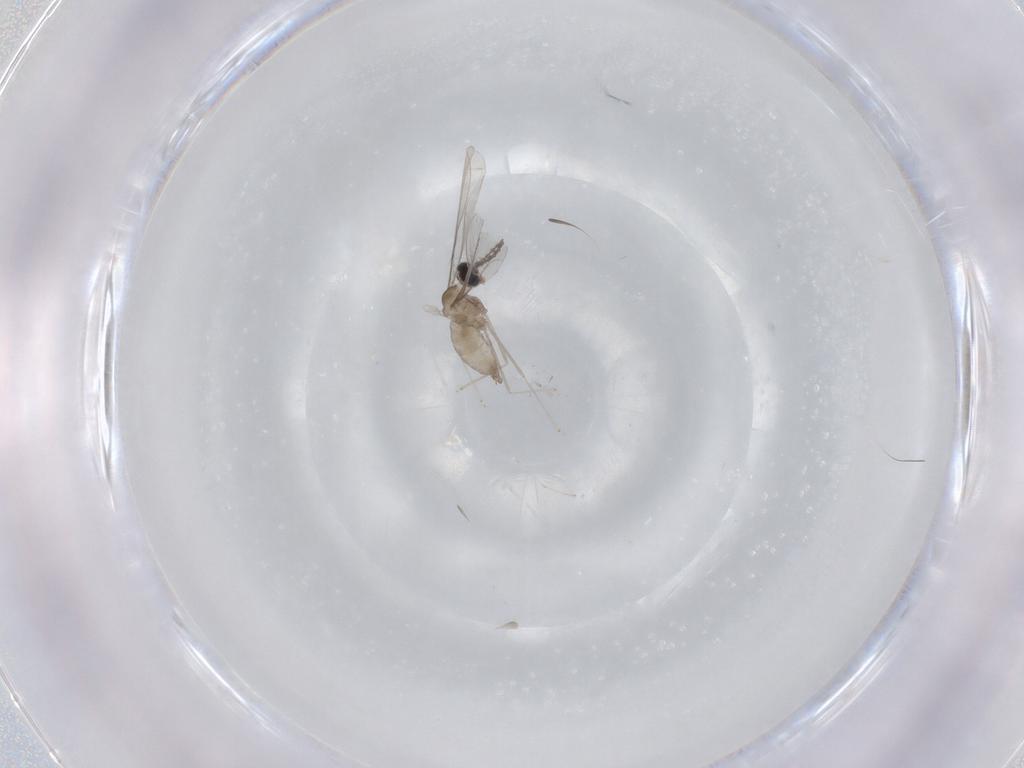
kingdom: Animalia
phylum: Arthropoda
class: Insecta
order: Diptera
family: Cecidomyiidae
